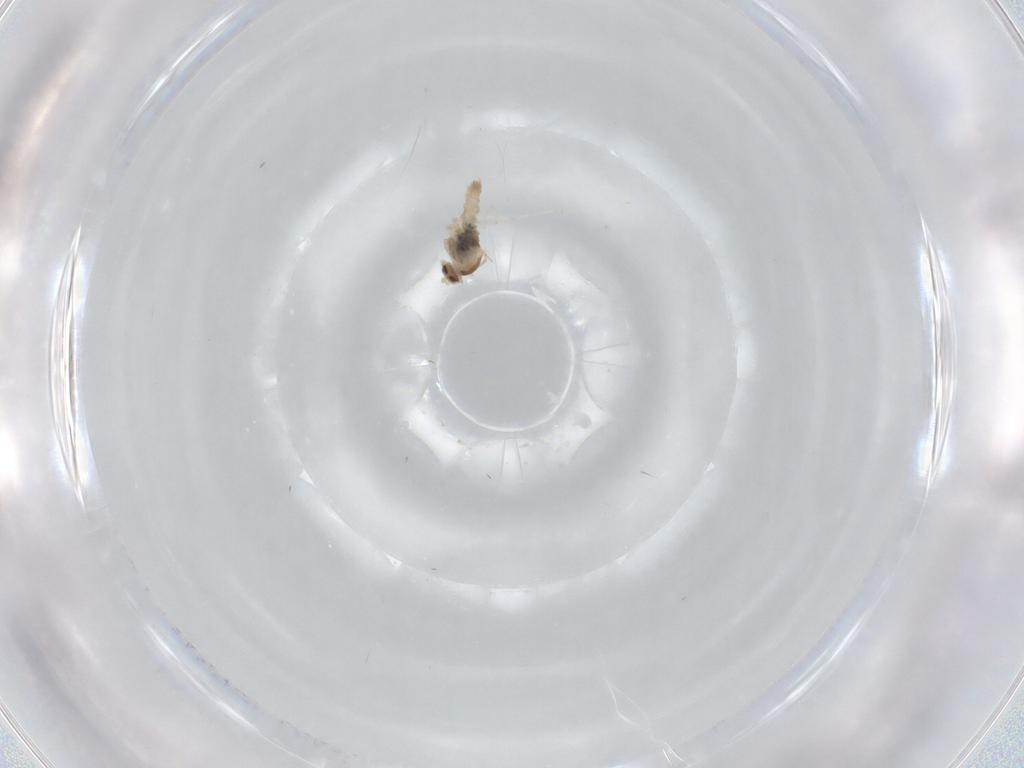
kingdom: Animalia
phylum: Arthropoda
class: Insecta
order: Diptera
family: Cecidomyiidae
